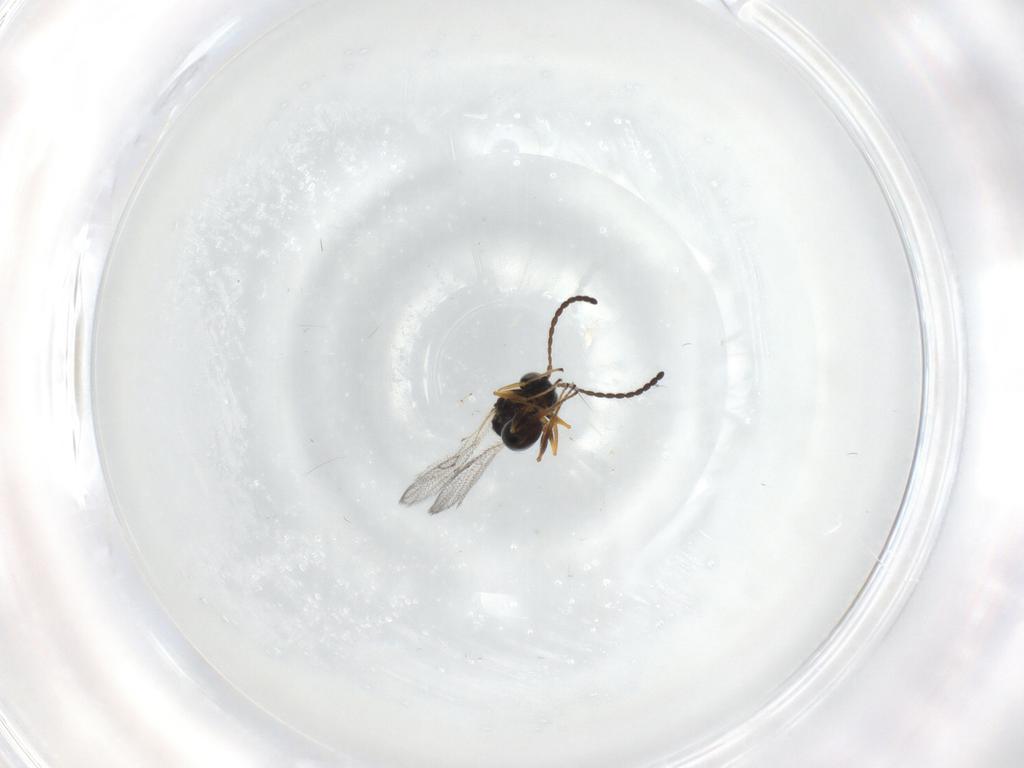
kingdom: Animalia
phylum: Arthropoda
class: Insecta
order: Hymenoptera
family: Figitidae
